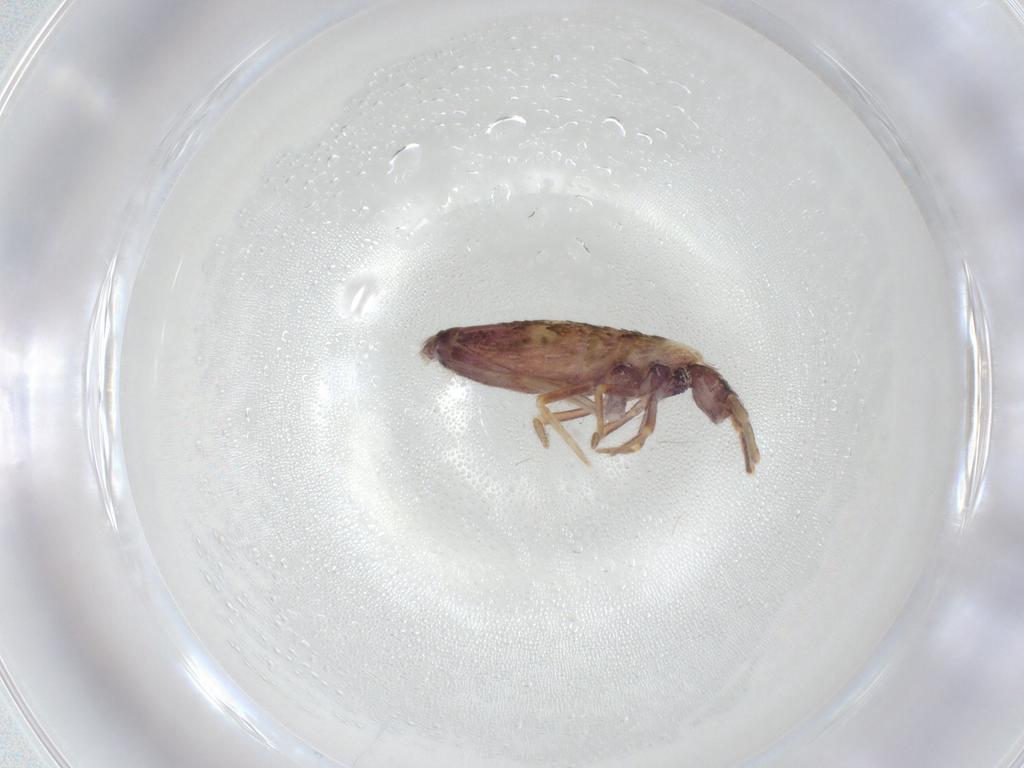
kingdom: Animalia
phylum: Arthropoda
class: Collembola
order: Entomobryomorpha
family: Entomobryidae
